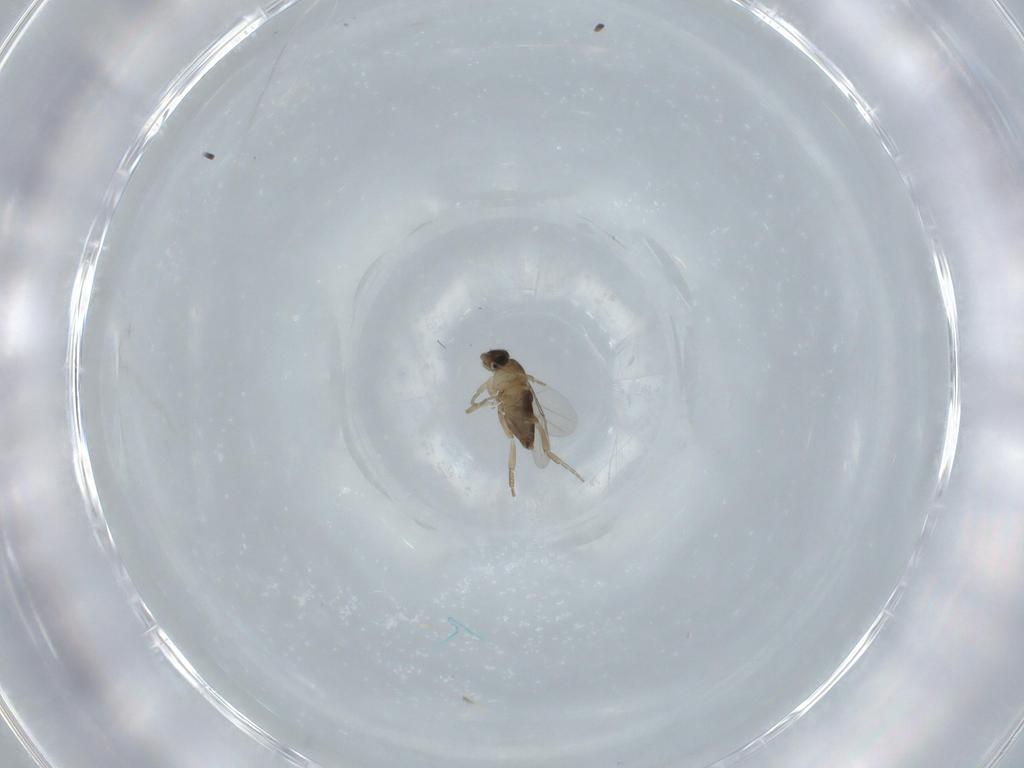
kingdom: Animalia
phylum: Arthropoda
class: Insecta
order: Diptera
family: Phoridae
